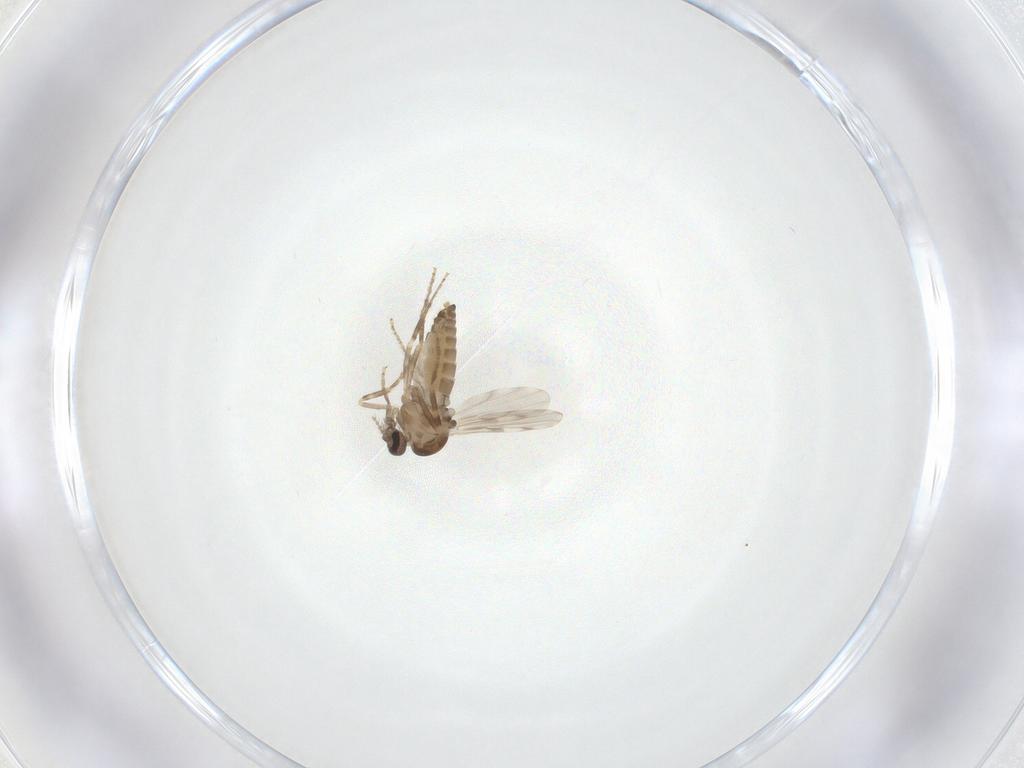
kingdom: Animalia
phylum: Arthropoda
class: Insecta
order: Diptera
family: Ceratopogonidae
